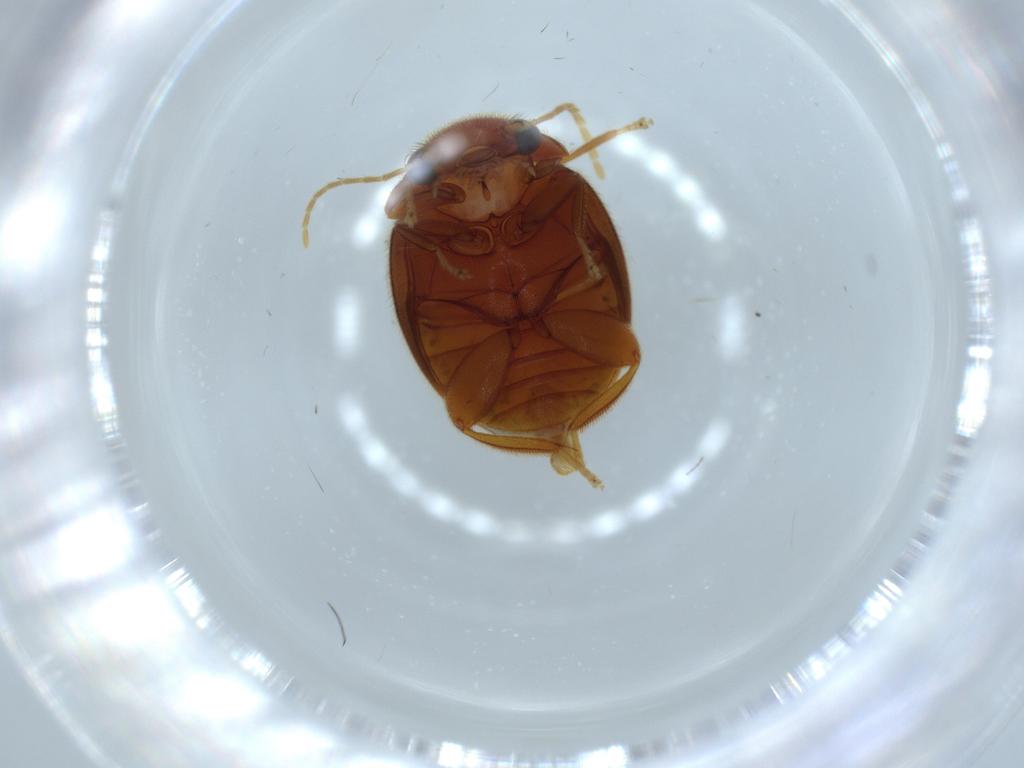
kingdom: Animalia
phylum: Arthropoda
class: Insecta
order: Coleoptera
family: Scirtidae
